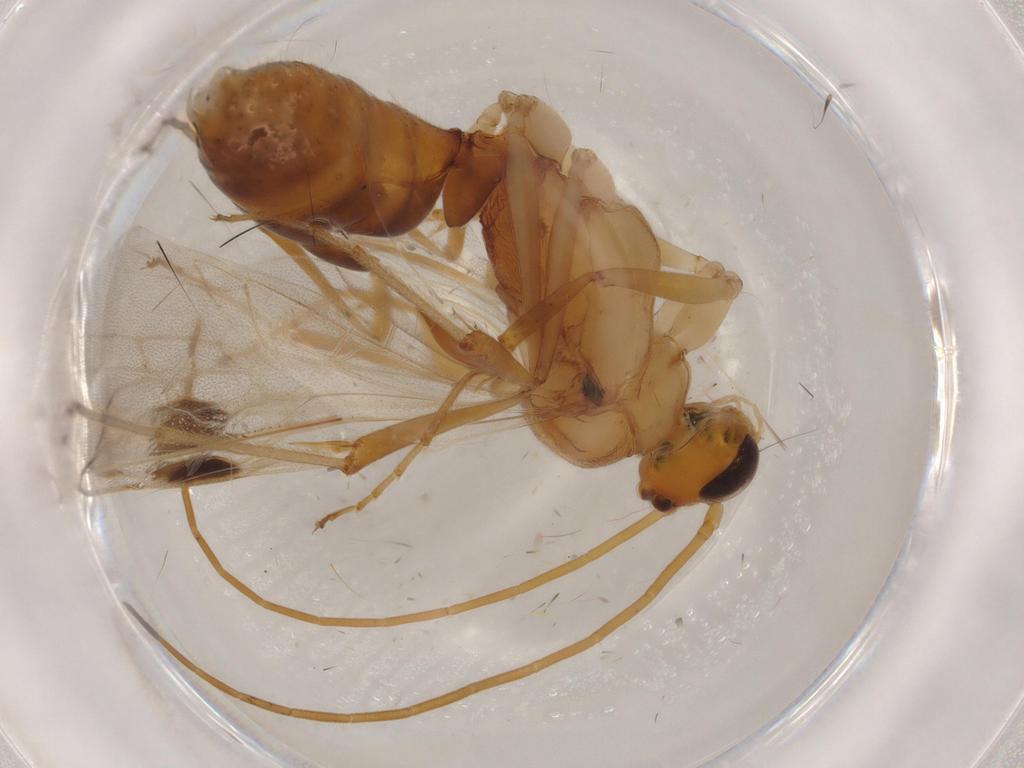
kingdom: Animalia
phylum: Arthropoda
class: Insecta
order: Hymenoptera
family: Formicidae
